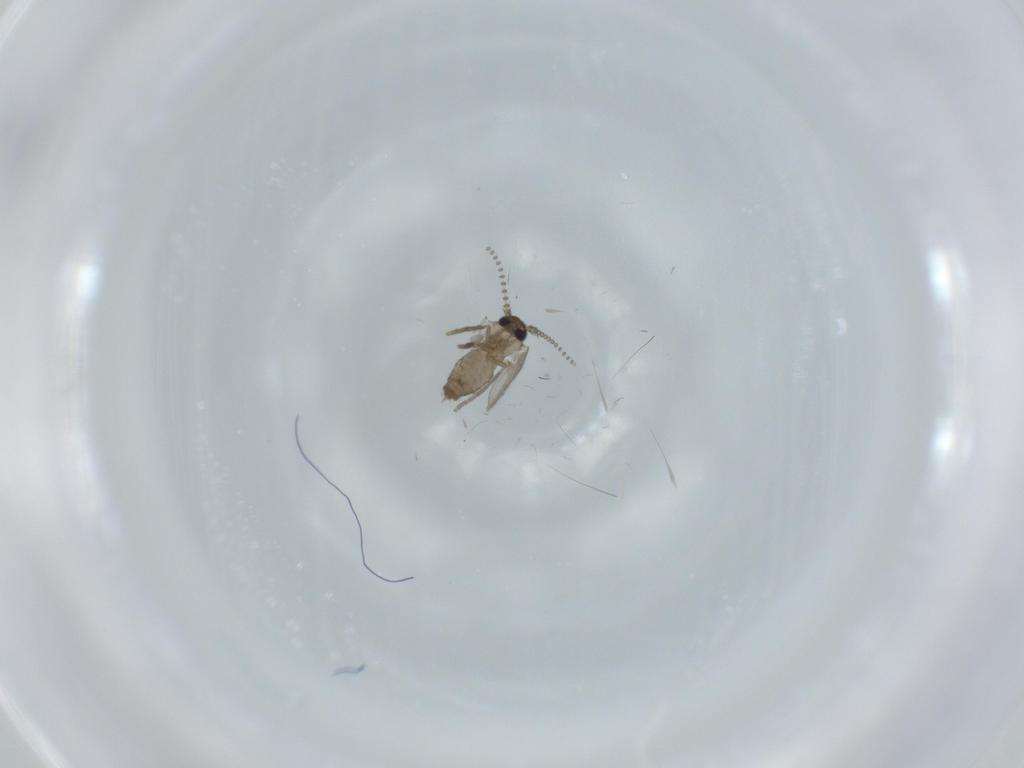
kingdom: Animalia
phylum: Arthropoda
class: Insecta
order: Diptera
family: Psychodidae
